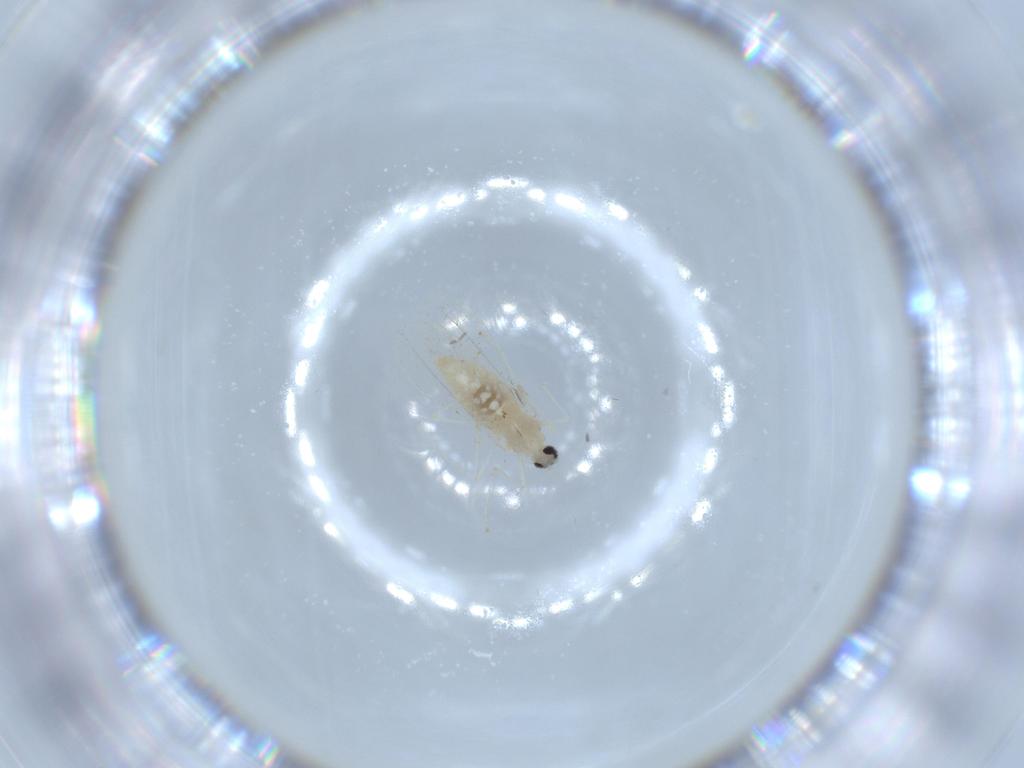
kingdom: Animalia
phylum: Arthropoda
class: Insecta
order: Diptera
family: Cecidomyiidae
